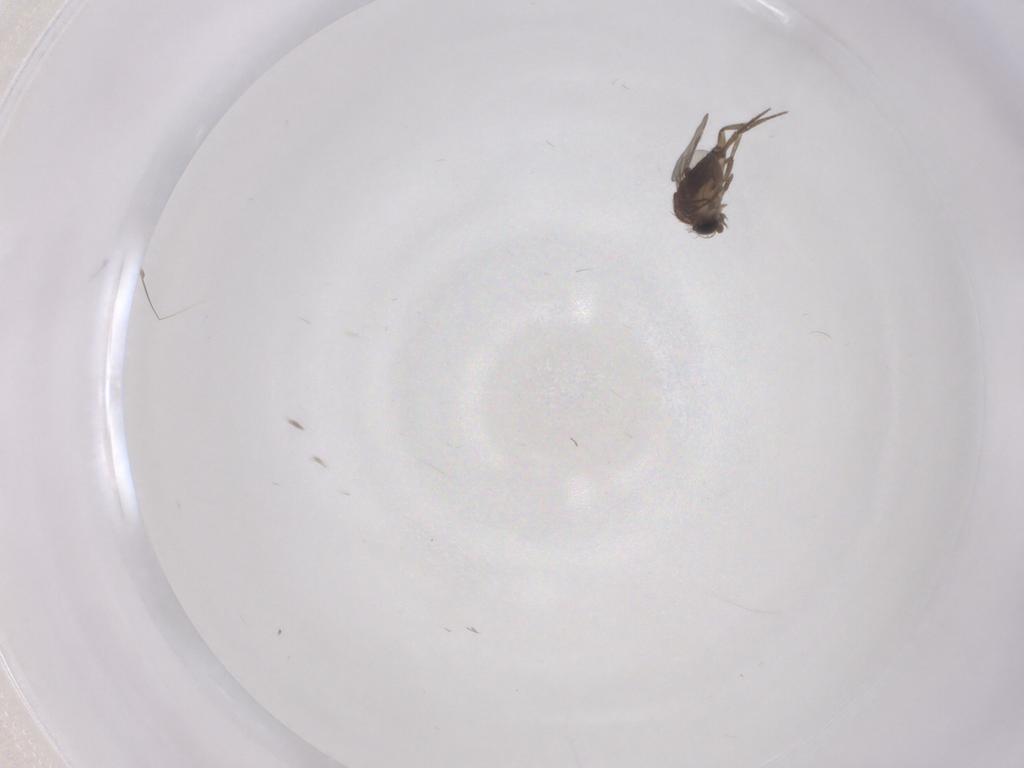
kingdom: Animalia
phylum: Arthropoda
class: Insecta
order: Diptera
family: Phoridae
